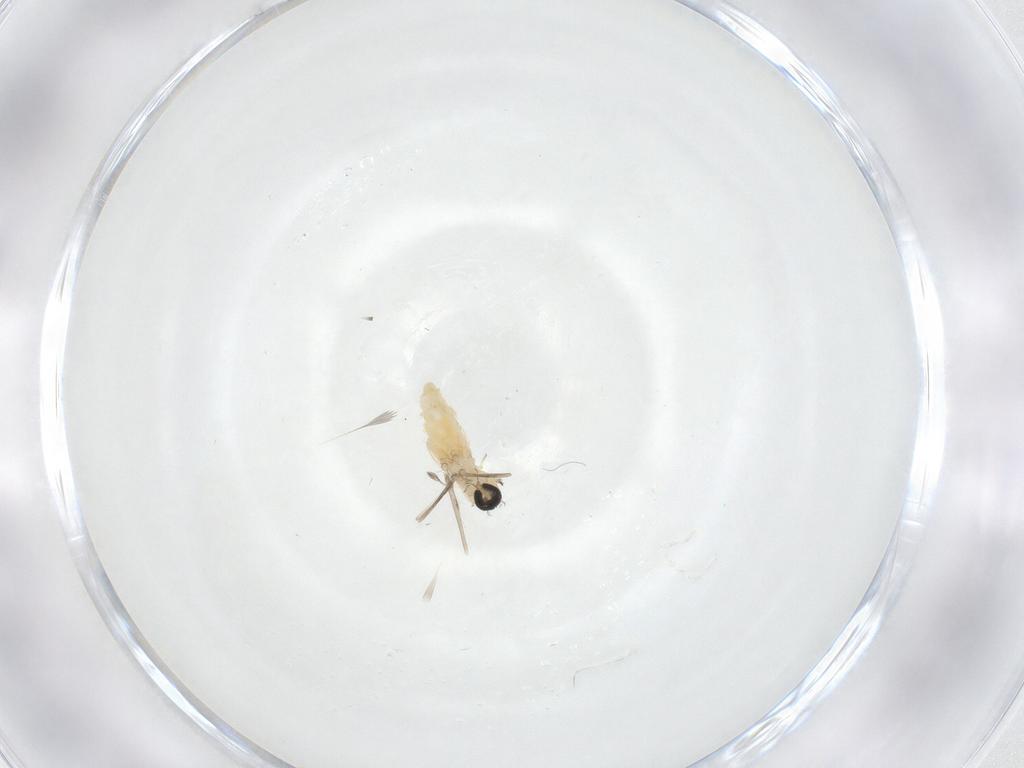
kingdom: Animalia
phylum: Arthropoda
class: Insecta
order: Diptera
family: Cecidomyiidae
